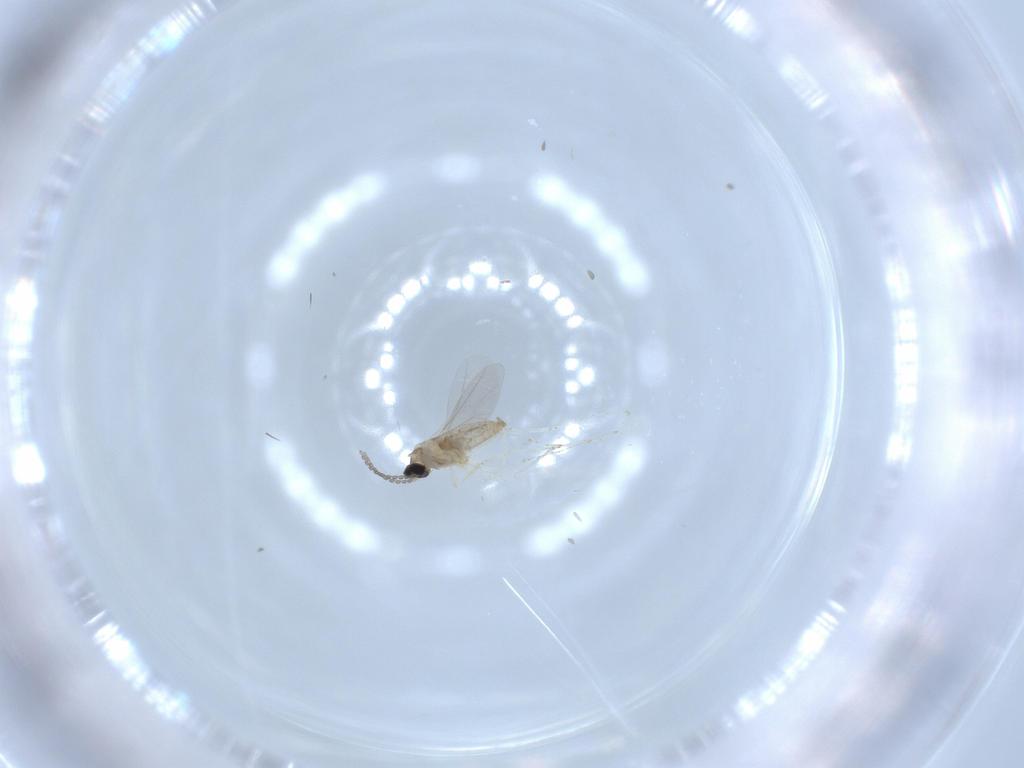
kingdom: Animalia
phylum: Arthropoda
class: Insecta
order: Diptera
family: Cecidomyiidae
